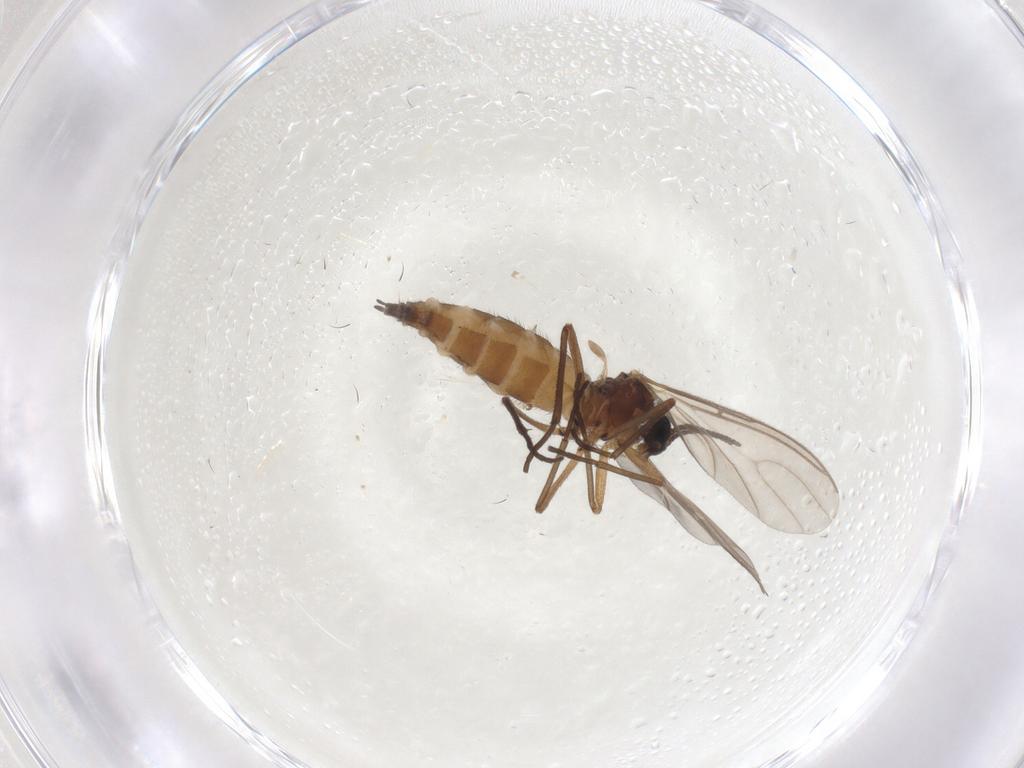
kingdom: Animalia
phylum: Arthropoda
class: Insecta
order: Diptera
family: Sciaridae
